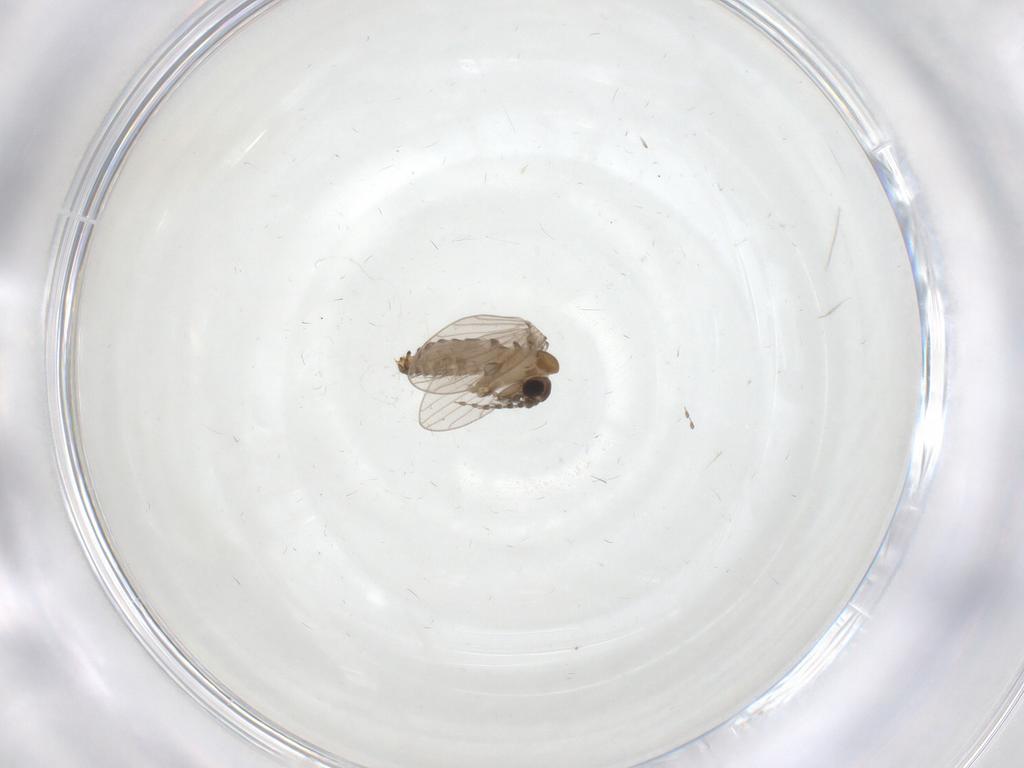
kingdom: Animalia
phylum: Arthropoda
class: Insecta
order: Diptera
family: Psychodidae
